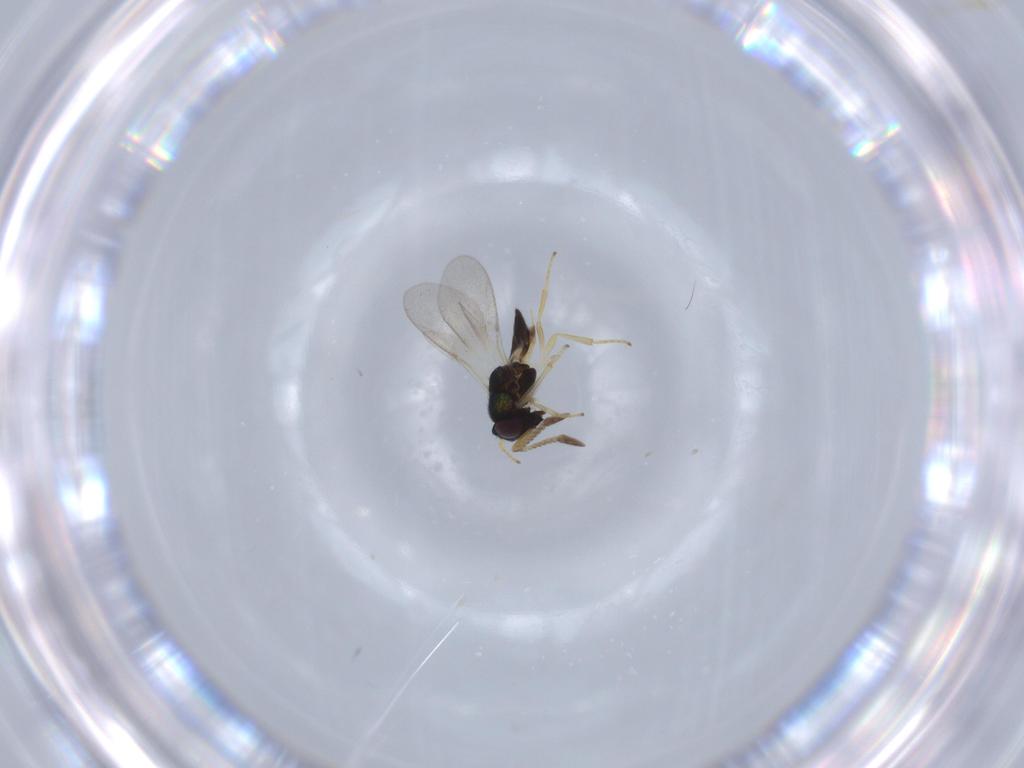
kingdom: Animalia
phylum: Arthropoda
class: Insecta
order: Hymenoptera
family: Encyrtidae
